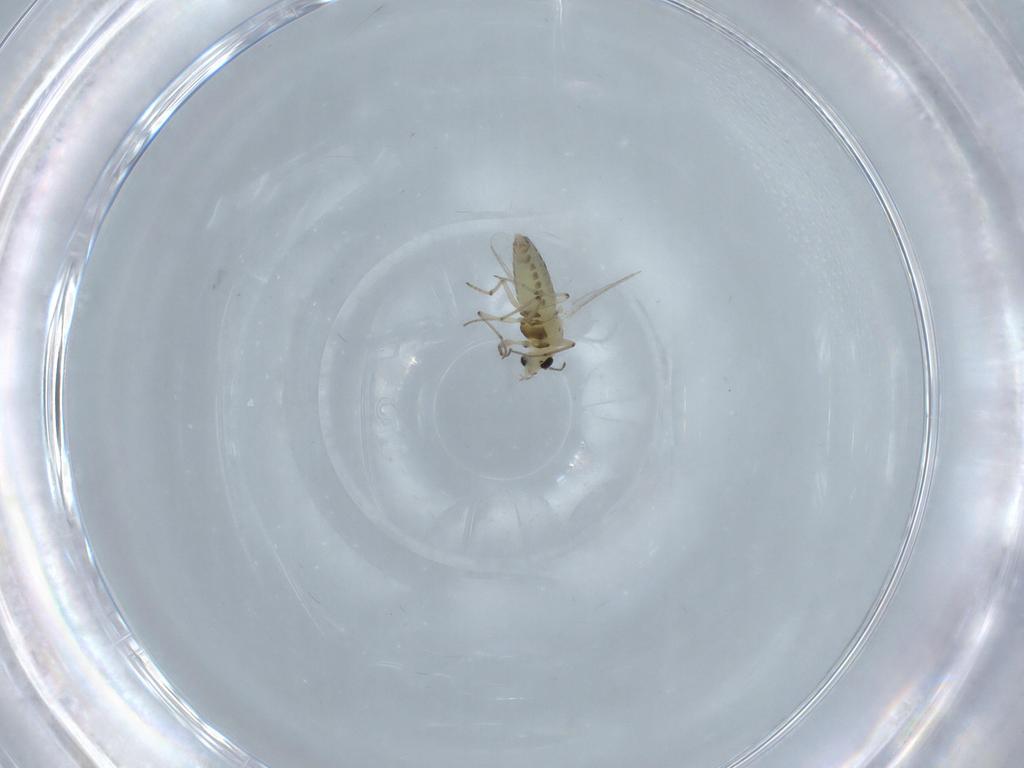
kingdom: Animalia
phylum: Arthropoda
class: Insecta
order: Diptera
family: Chironomidae
